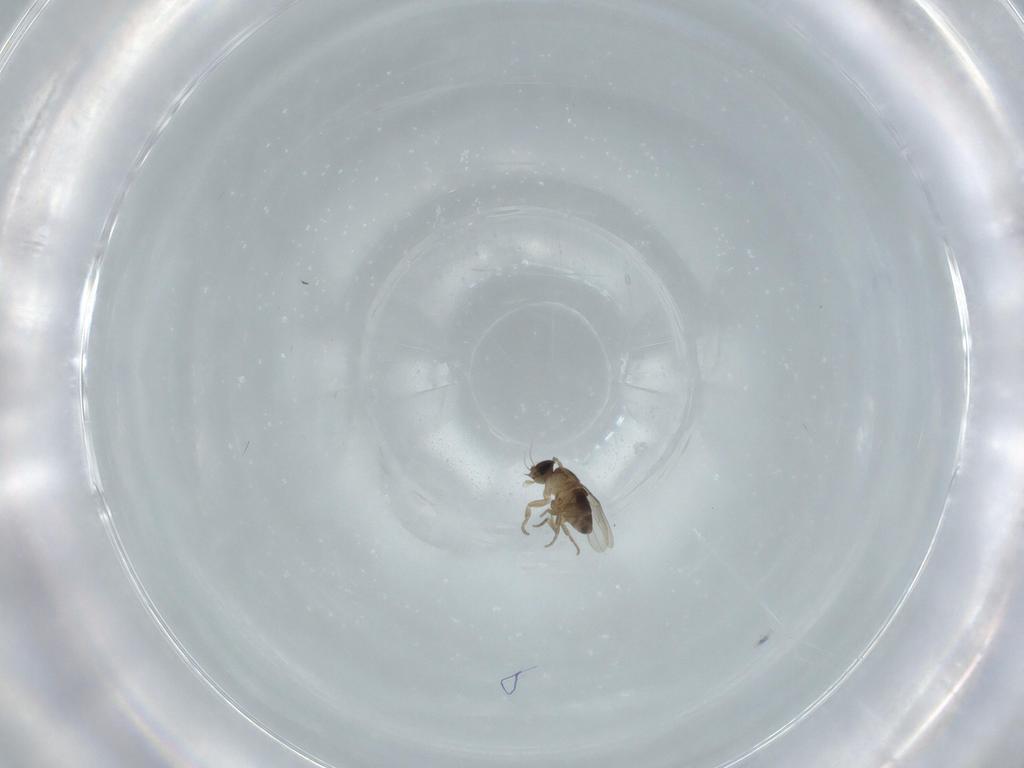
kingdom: Animalia
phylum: Arthropoda
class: Insecta
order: Diptera
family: Phoridae
